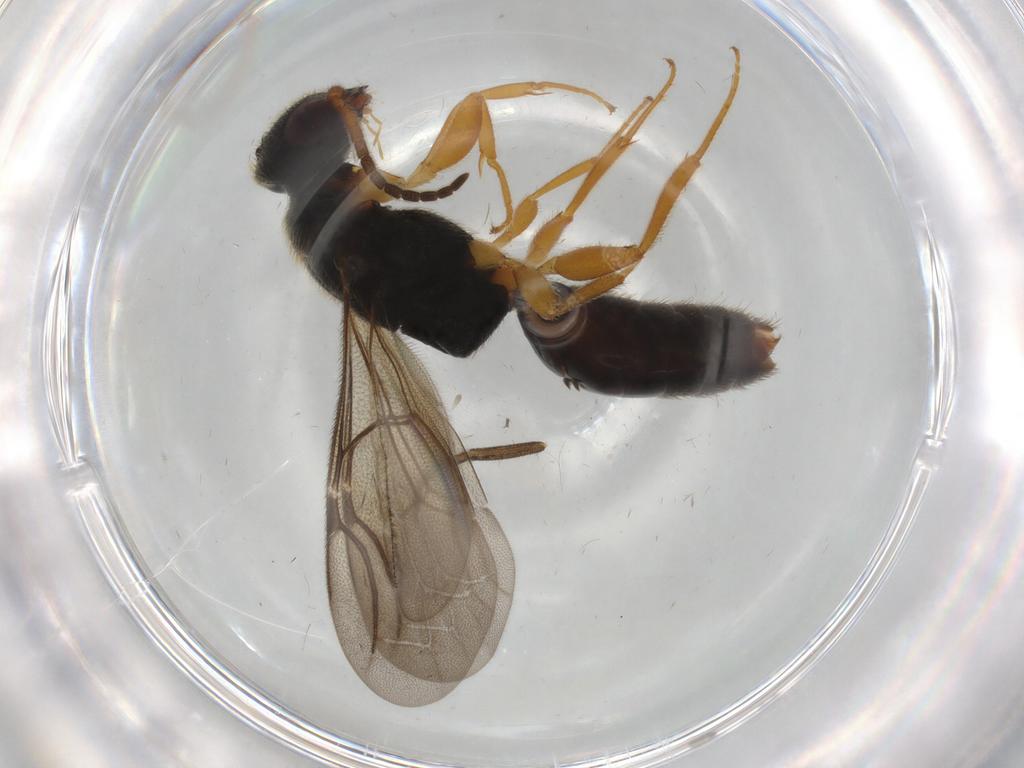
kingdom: Animalia
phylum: Arthropoda
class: Insecta
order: Hymenoptera
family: Bethylidae
